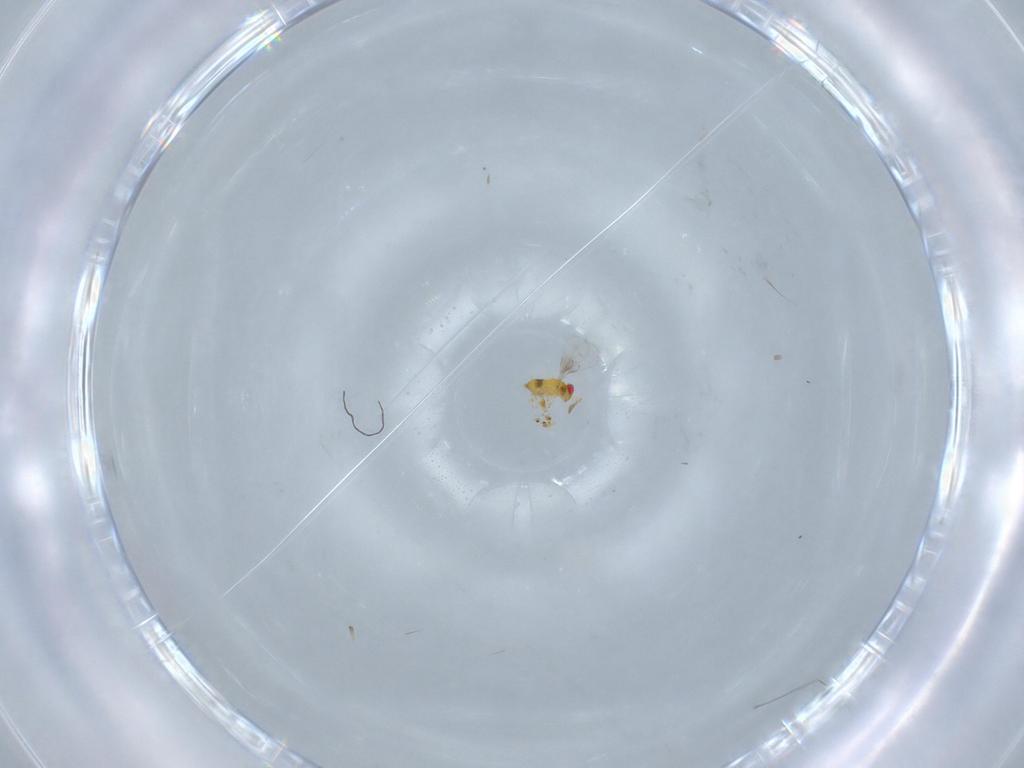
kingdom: Animalia
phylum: Arthropoda
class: Insecta
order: Hymenoptera
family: Trichogrammatidae
